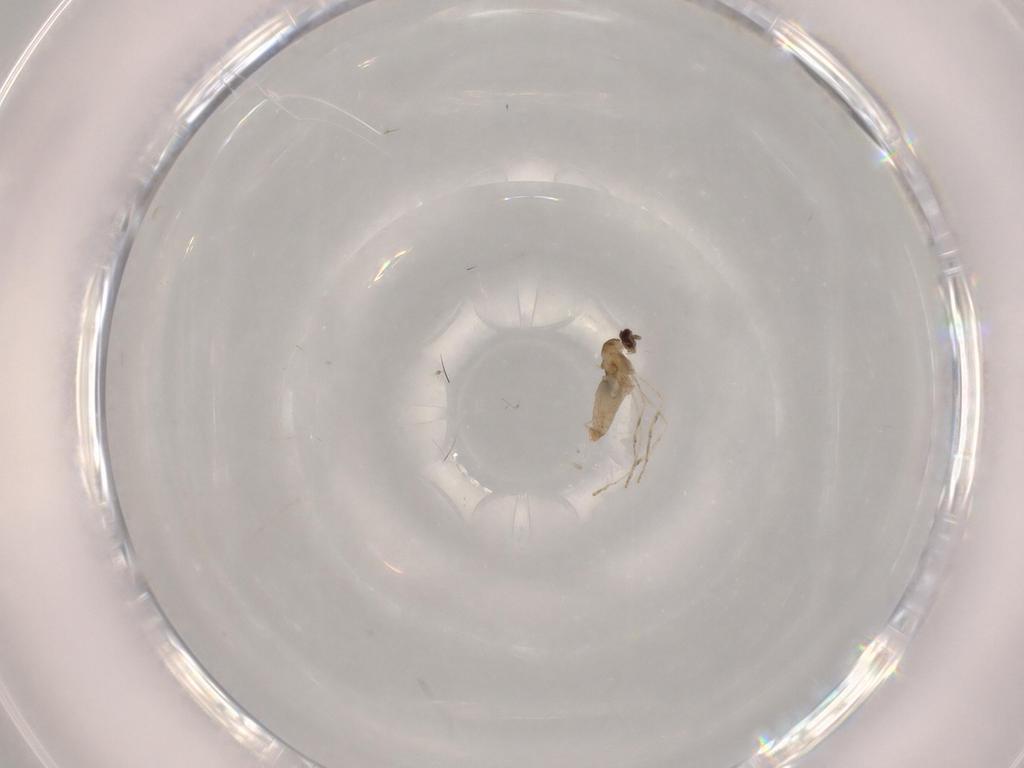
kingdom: Animalia
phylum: Arthropoda
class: Insecta
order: Diptera
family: Cecidomyiidae
